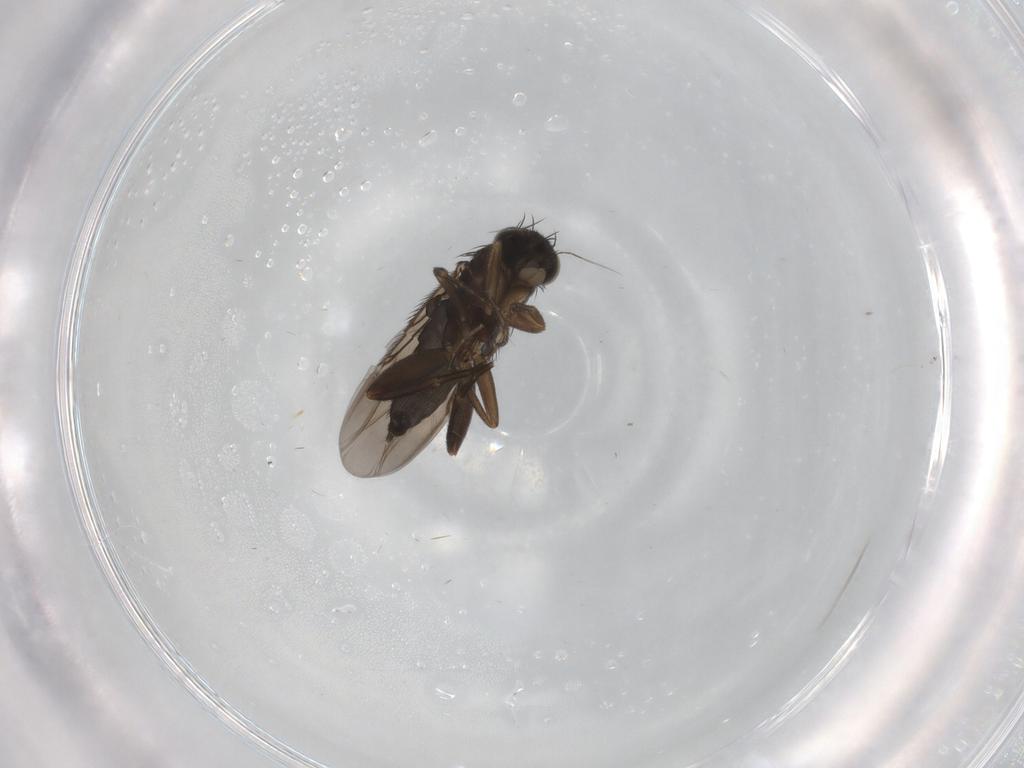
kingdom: Animalia
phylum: Arthropoda
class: Insecta
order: Diptera
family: Phoridae
